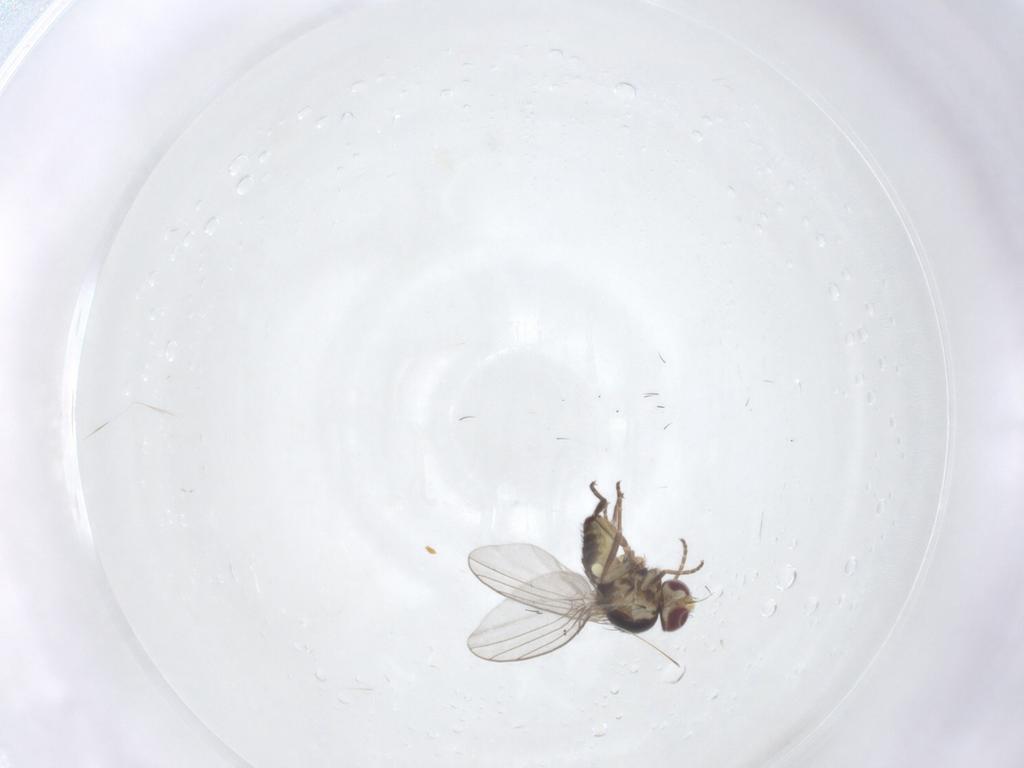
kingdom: Animalia
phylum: Arthropoda
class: Insecta
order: Diptera
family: Agromyzidae
